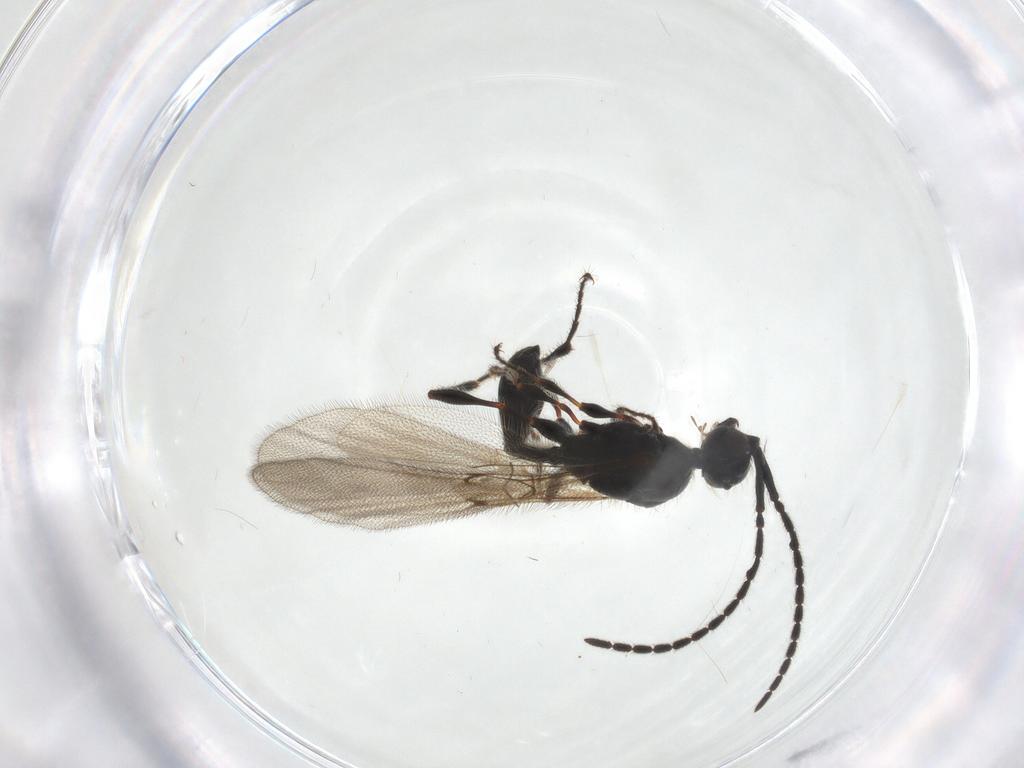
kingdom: Animalia
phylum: Arthropoda
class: Insecta
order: Hymenoptera
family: Diapriidae
